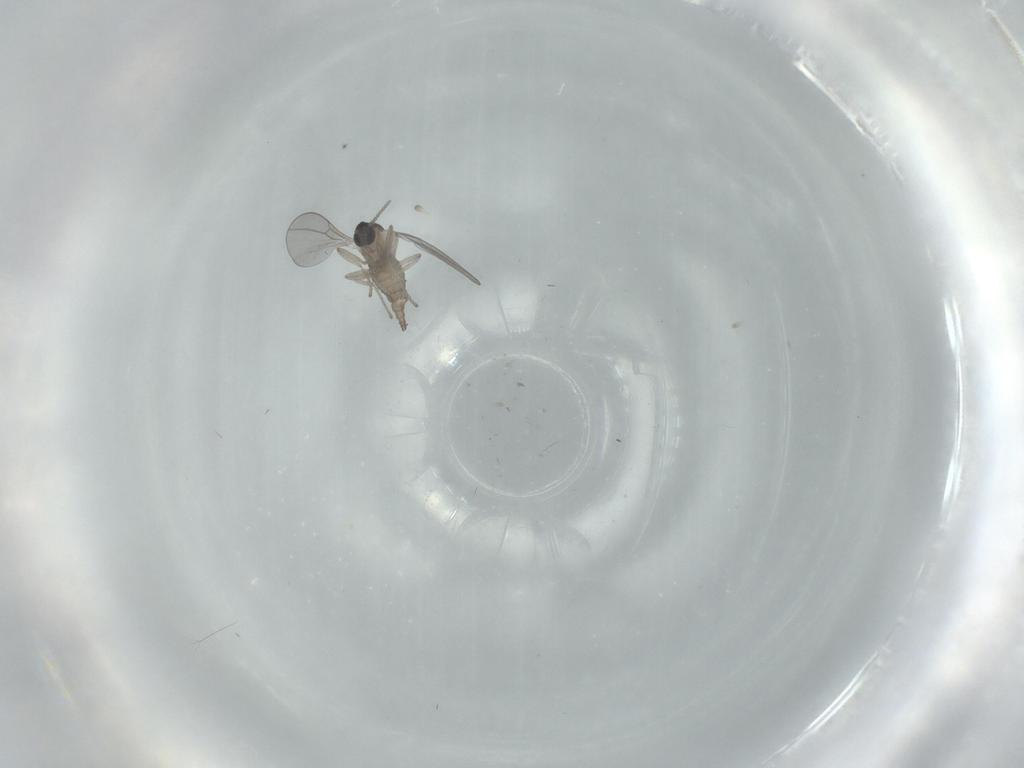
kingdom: Animalia
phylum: Arthropoda
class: Insecta
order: Diptera
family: Phoridae
